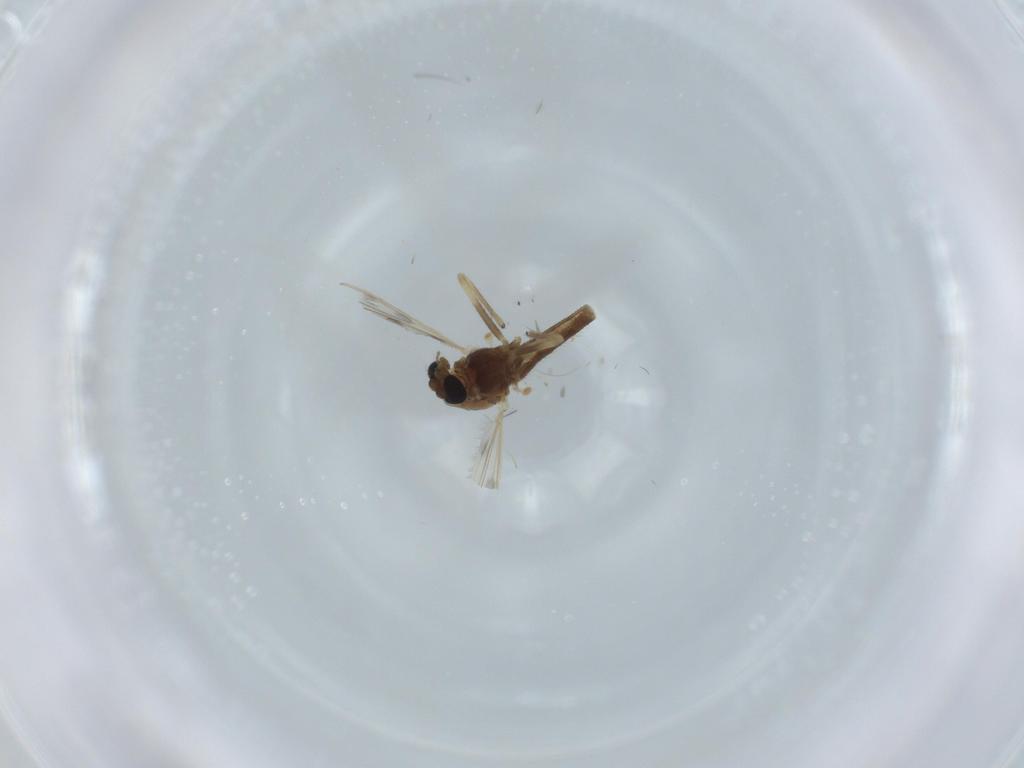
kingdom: Animalia
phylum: Arthropoda
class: Insecta
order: Diptera
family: Chironomidae
